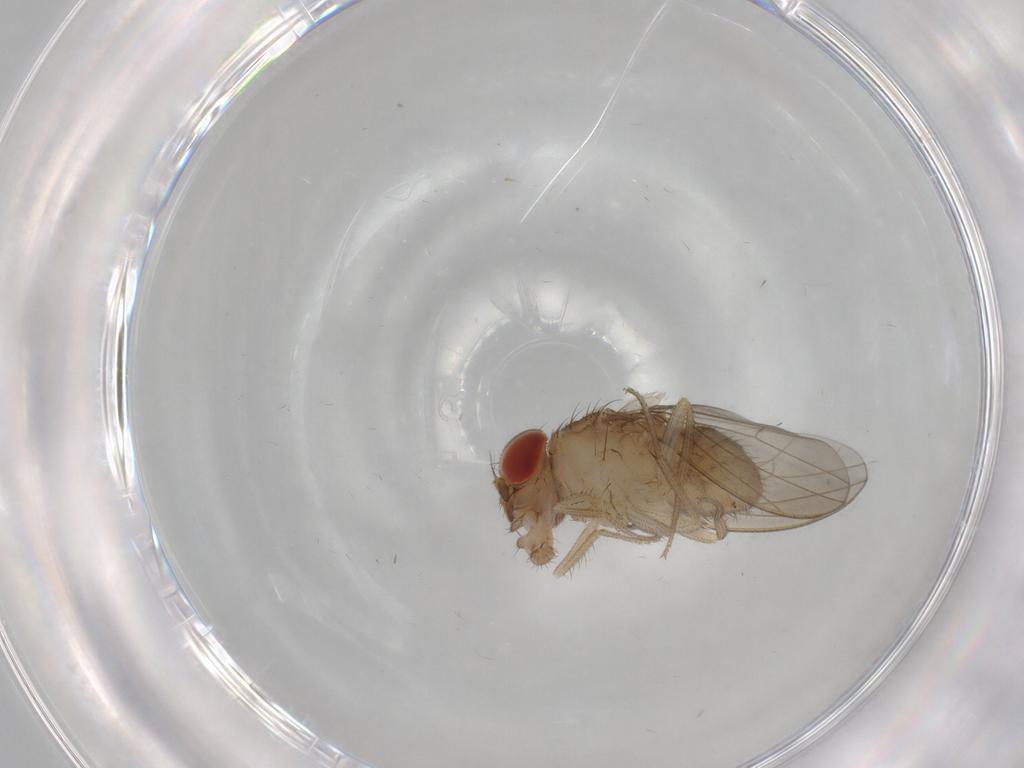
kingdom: Animalia
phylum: Arthropoda
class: Insecta
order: Diptera
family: Drosophilidae
